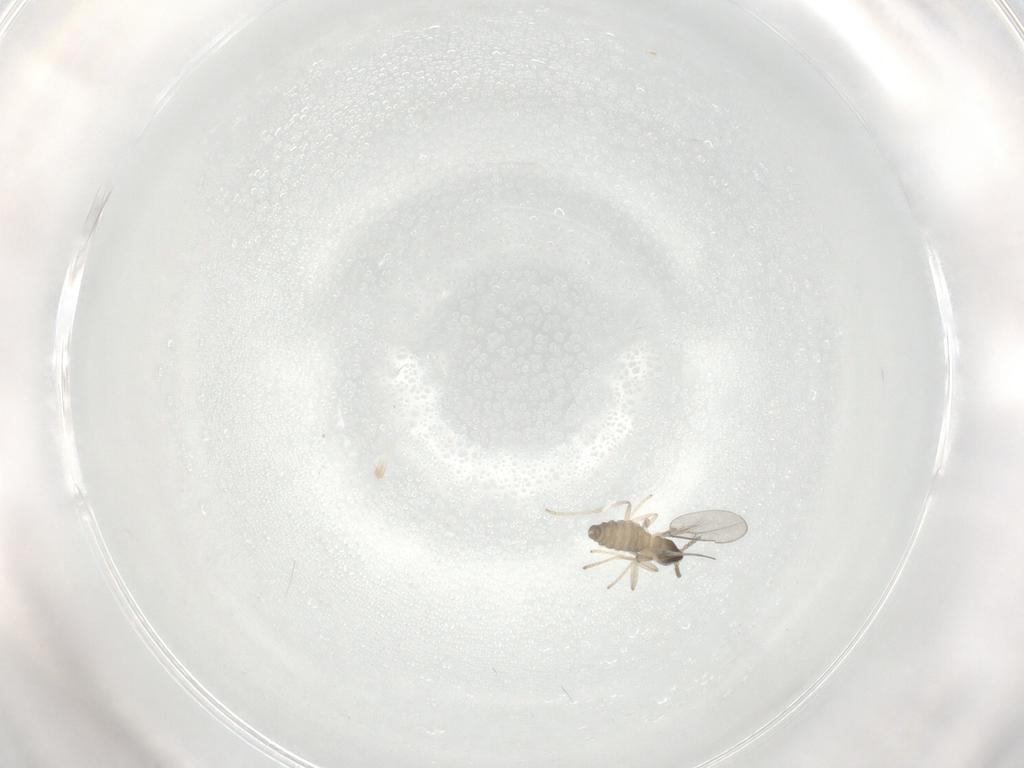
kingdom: Animalia
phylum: Arthropoda
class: Insecta
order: Diptera
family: Cecidomyiidae
